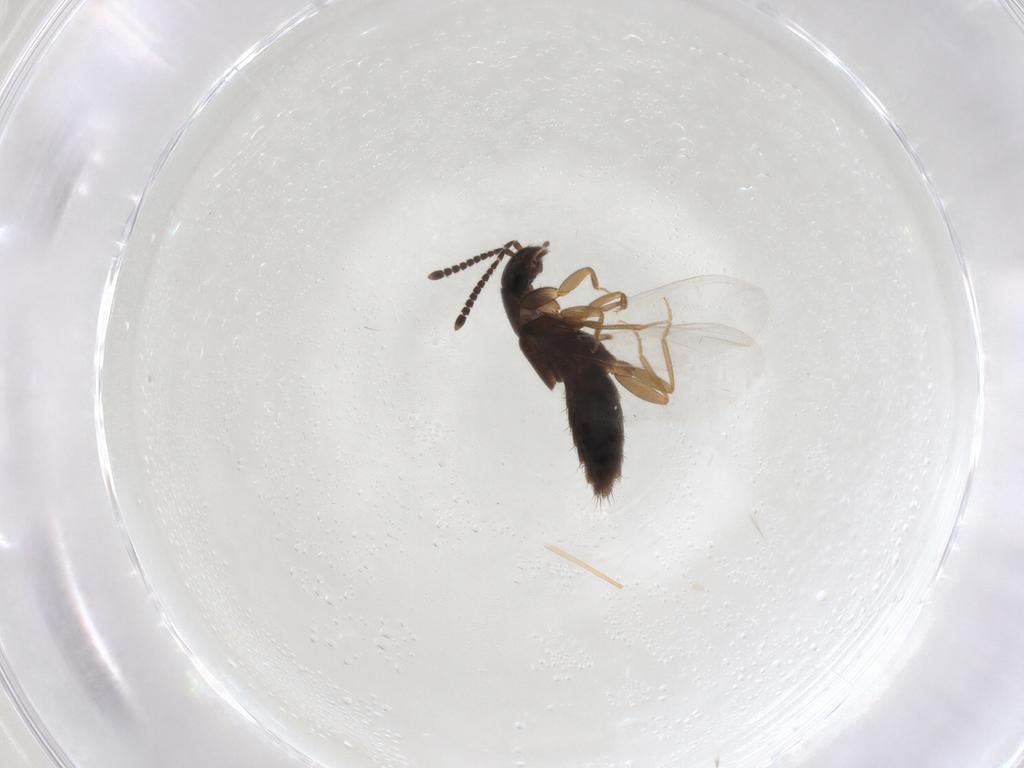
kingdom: Animalia
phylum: Arthropoda
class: Insecta
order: Coleoptera
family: Staphylinidae
